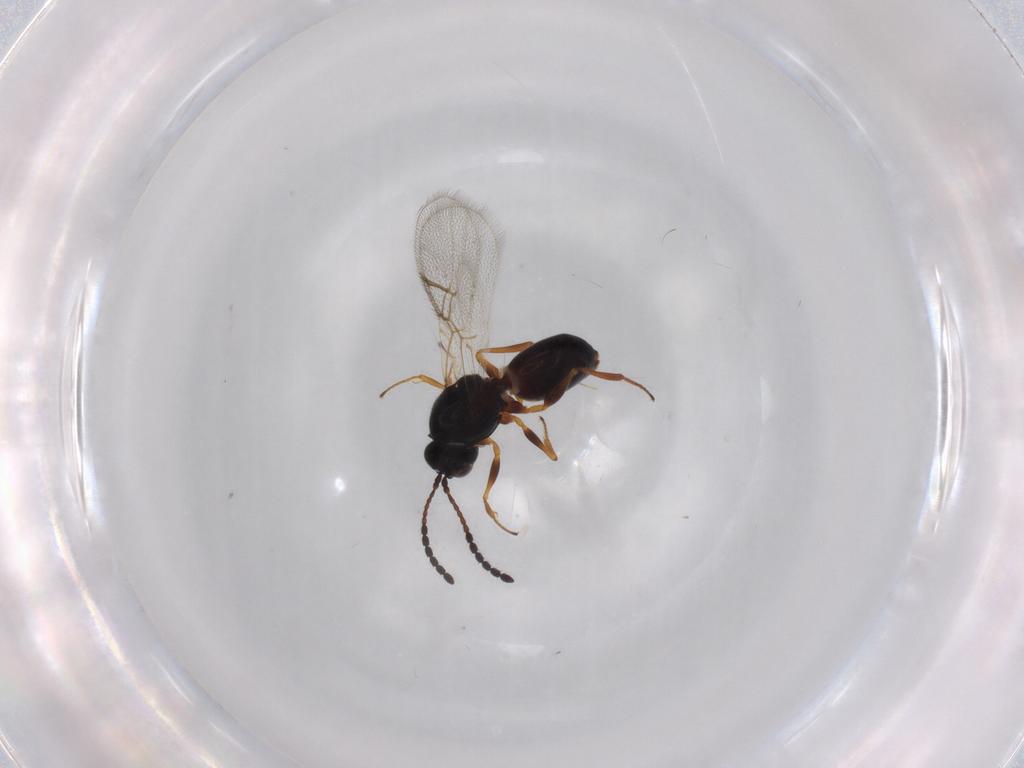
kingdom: Animalia
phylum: Arthropoda
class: Insecta
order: Hymenoptera
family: Figitidae
